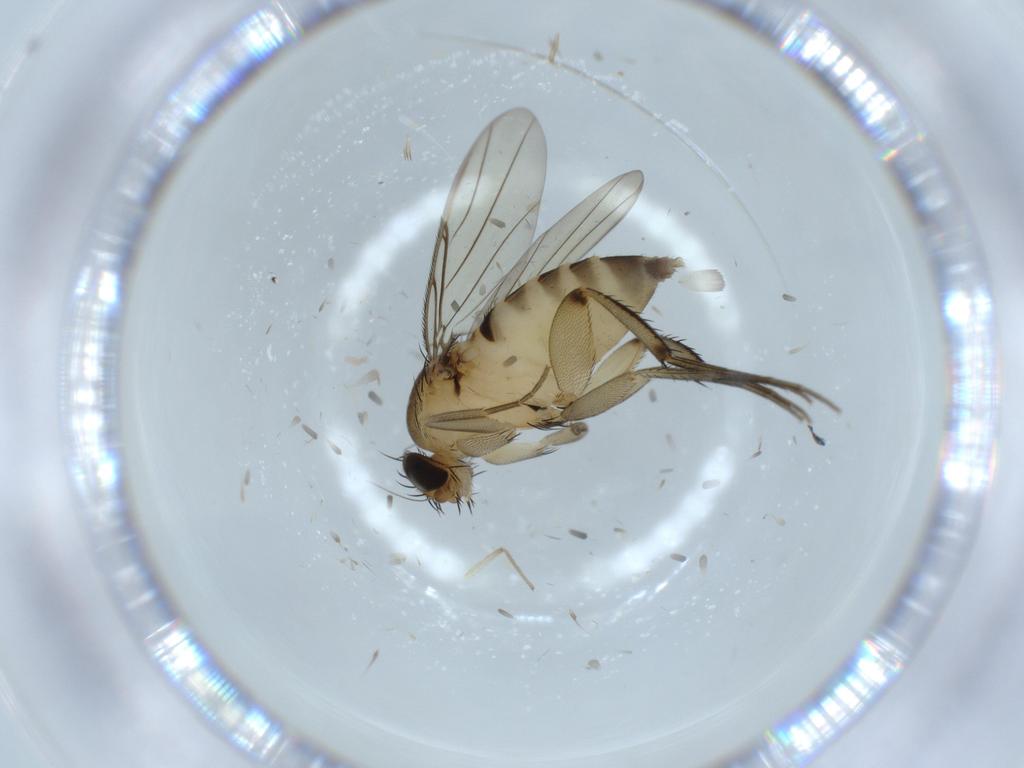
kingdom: Animalia
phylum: Arthropoda
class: Insecta
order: Diptera
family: Phoridae
